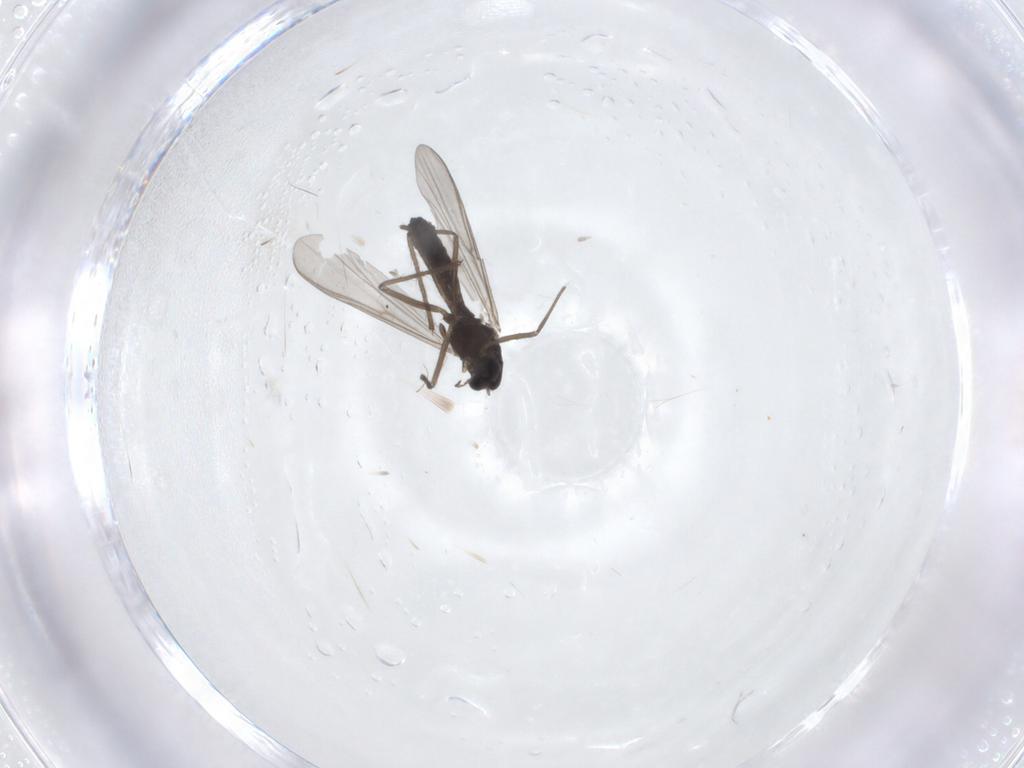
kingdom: Animalia
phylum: Arthropoda
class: Insecta
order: Diptera
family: Chironomidae
